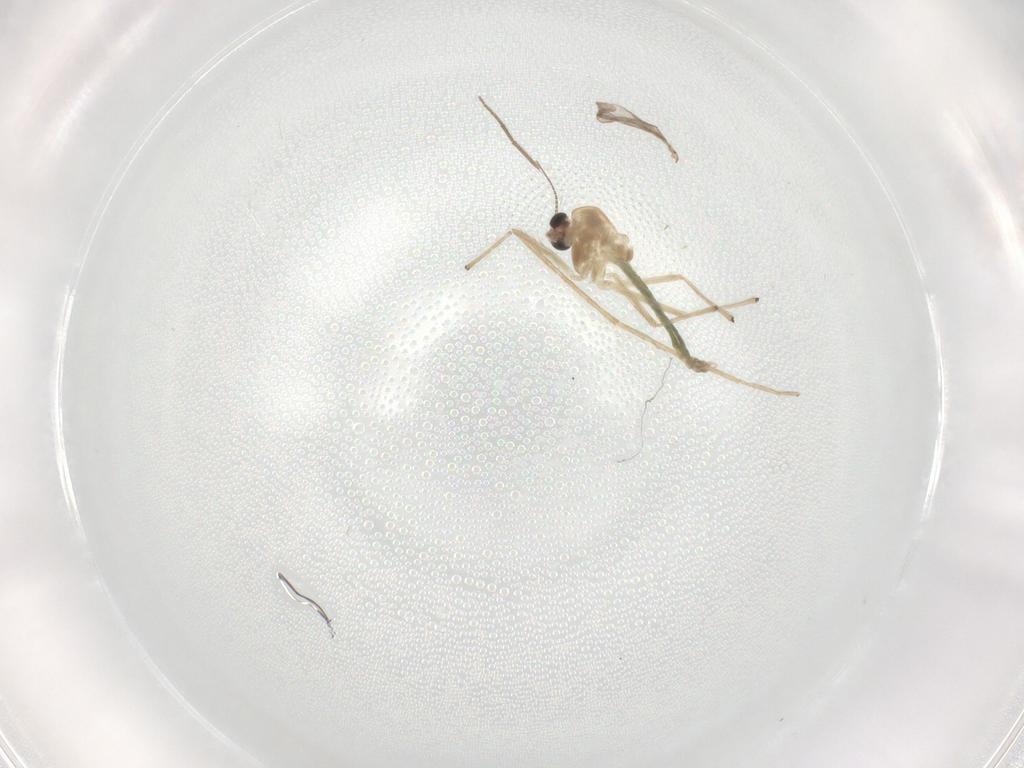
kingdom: Animalia
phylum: Arthropoda
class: Insecta
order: Diptera
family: Chironomidae
